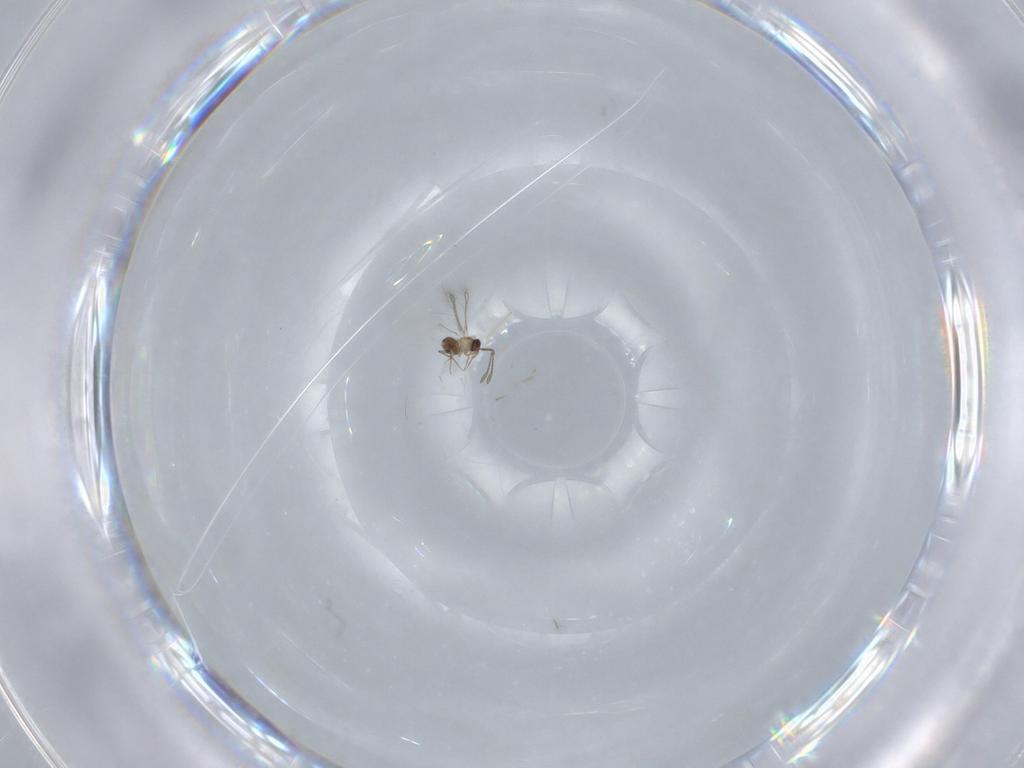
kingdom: Animalia
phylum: Arthropoda
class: Insecta
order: Hymenoptera
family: Mymaridae
